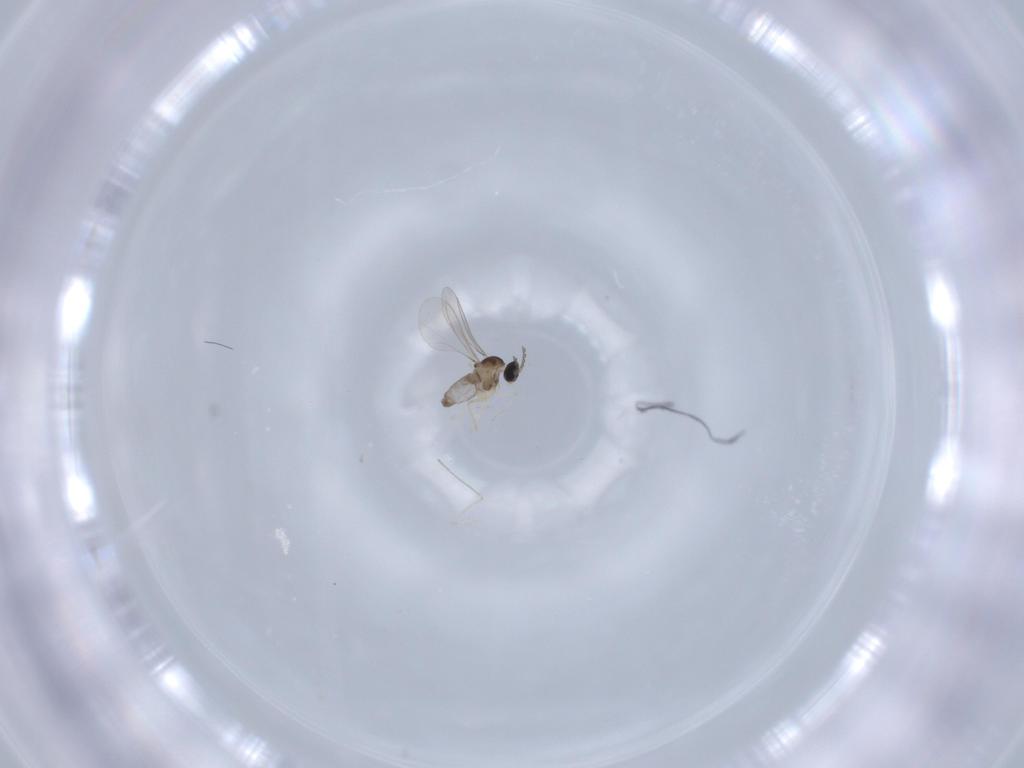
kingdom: Animalia
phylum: Arthropoda
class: Insecta
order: Diptera
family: Cecidomyiidae
